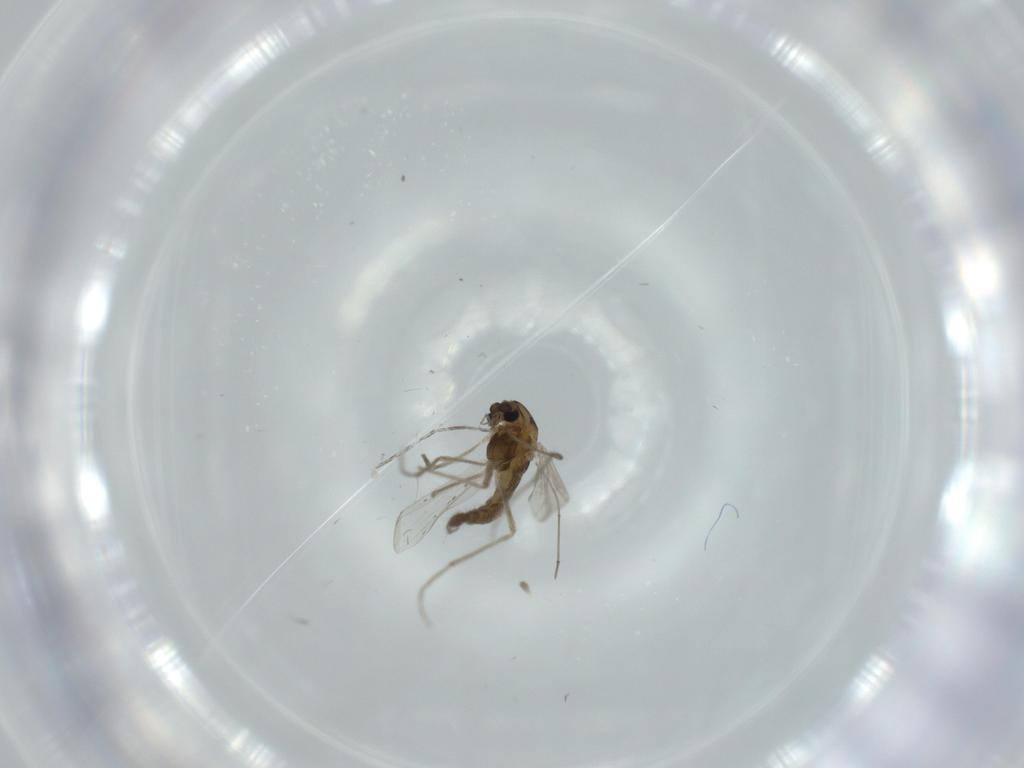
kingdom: Animalia
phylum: Arthropoda
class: Insecta
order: Diptera
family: Chironomidae
